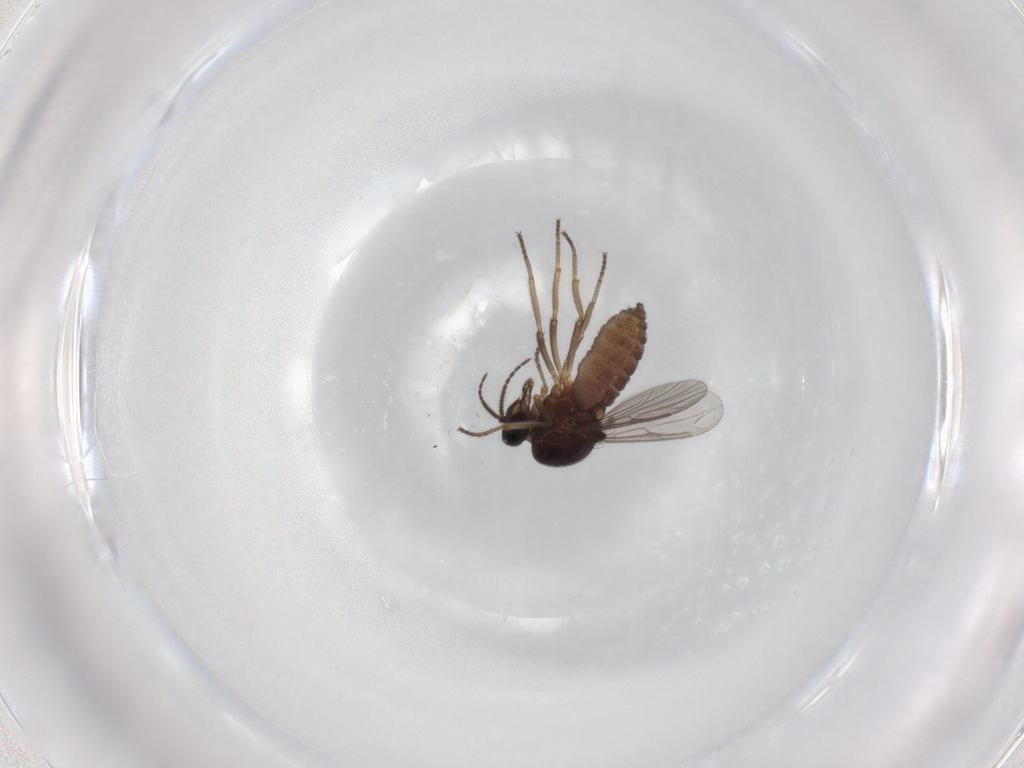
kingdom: Animalia
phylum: Arthropoda
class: Insecta
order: Diptera
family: Ceratopogonidae
